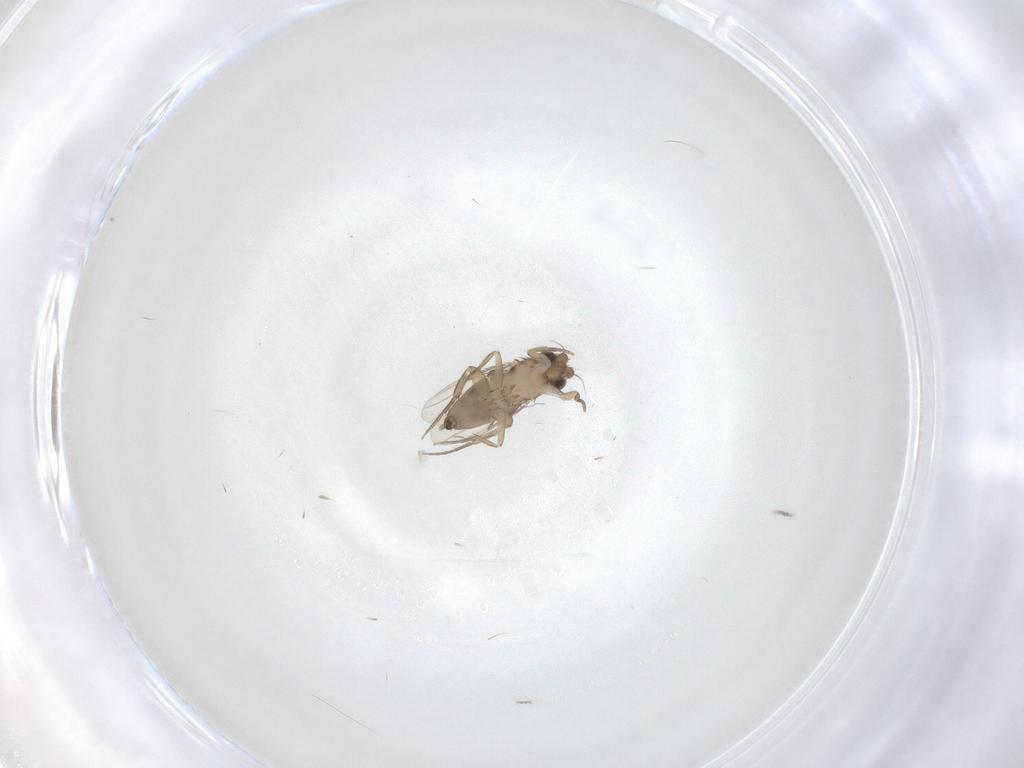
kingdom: Animalia
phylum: Arthropoda
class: Insecta
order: Diptera
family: Phoridae
